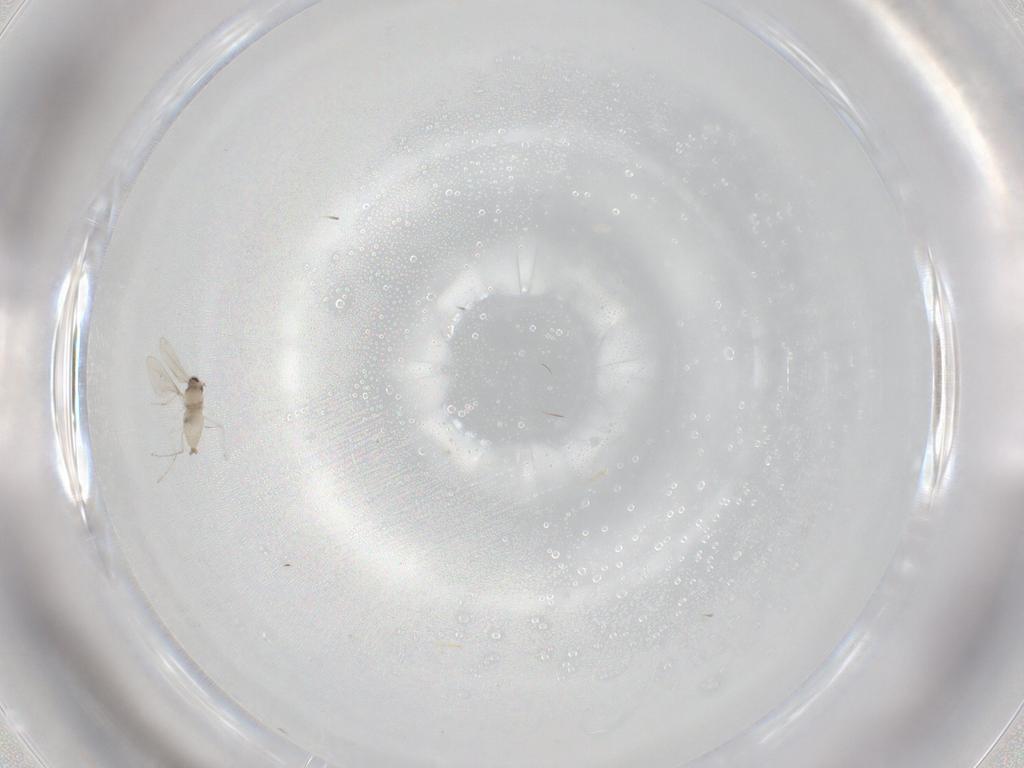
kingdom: Animalia
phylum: Arthropoda
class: Insecta
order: Diptera
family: Cecidomyiidae
